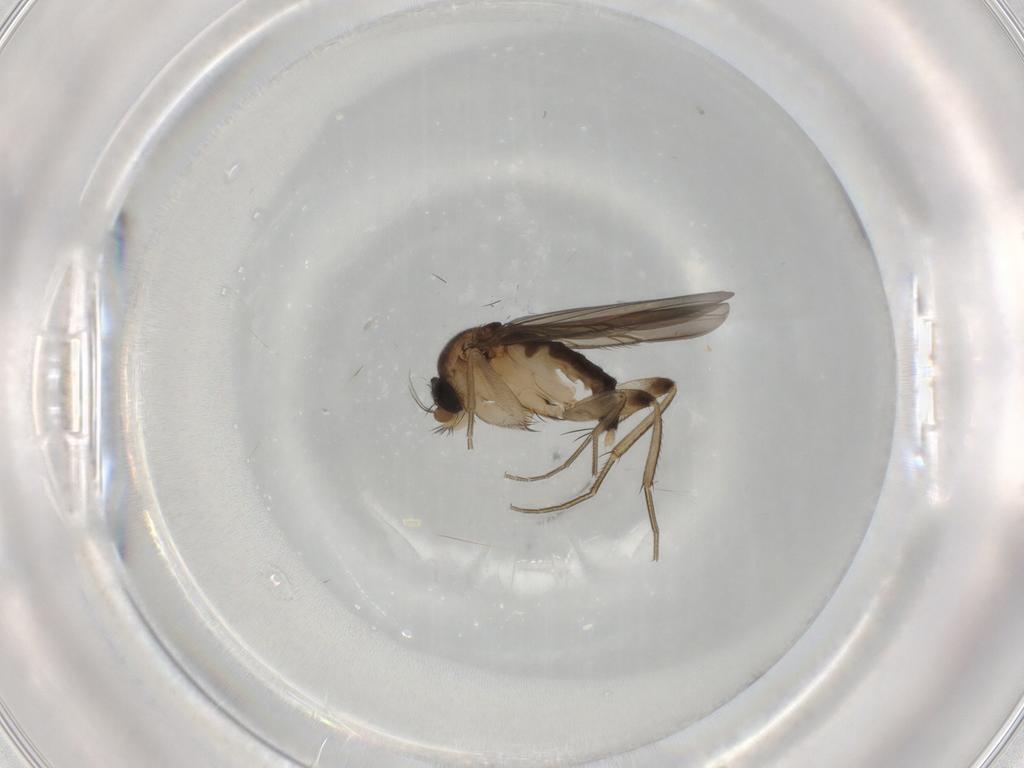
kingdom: Animalia
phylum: Arthropoda
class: Insecta
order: Diptera
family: Phoridae
